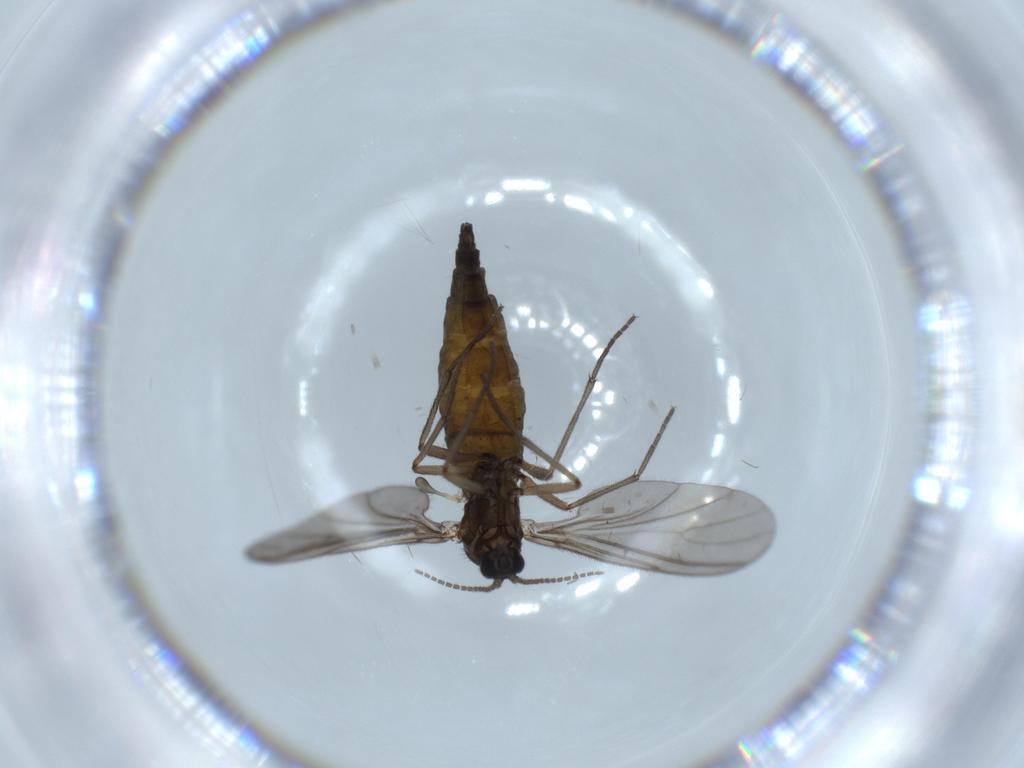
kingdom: Animalia
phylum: Arthropoda
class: Insecta
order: Diptera
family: Sciaridae
